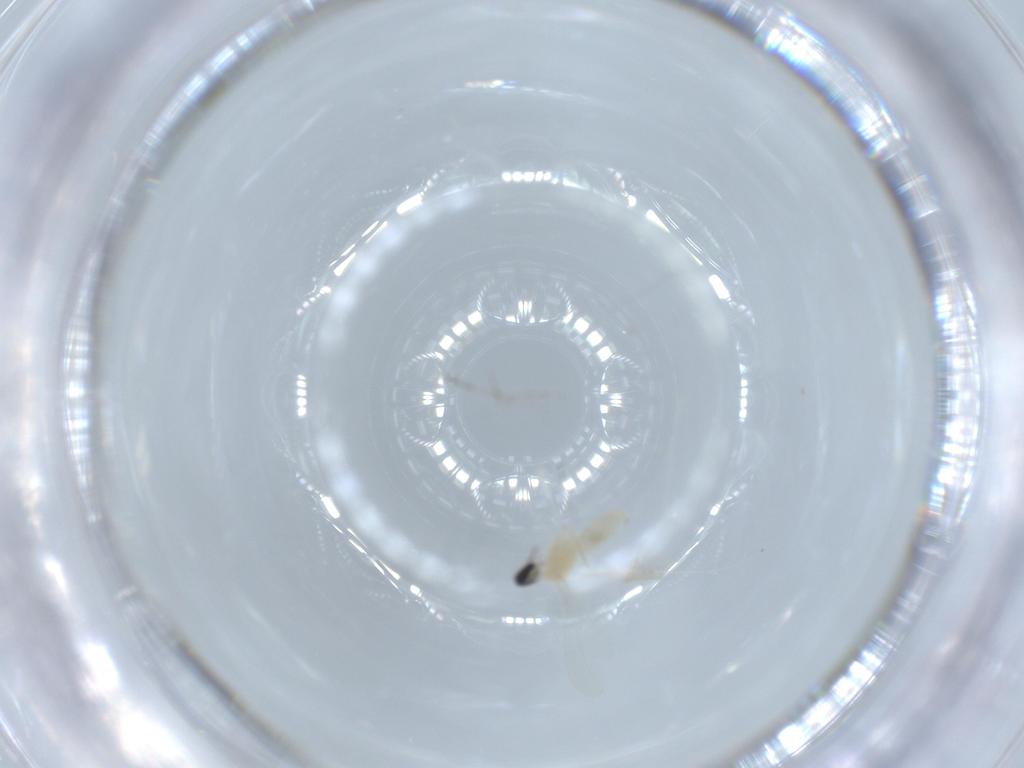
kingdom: Animalia
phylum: Arthropoda
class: Insecta
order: Diptera
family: Cecidomyiidae
